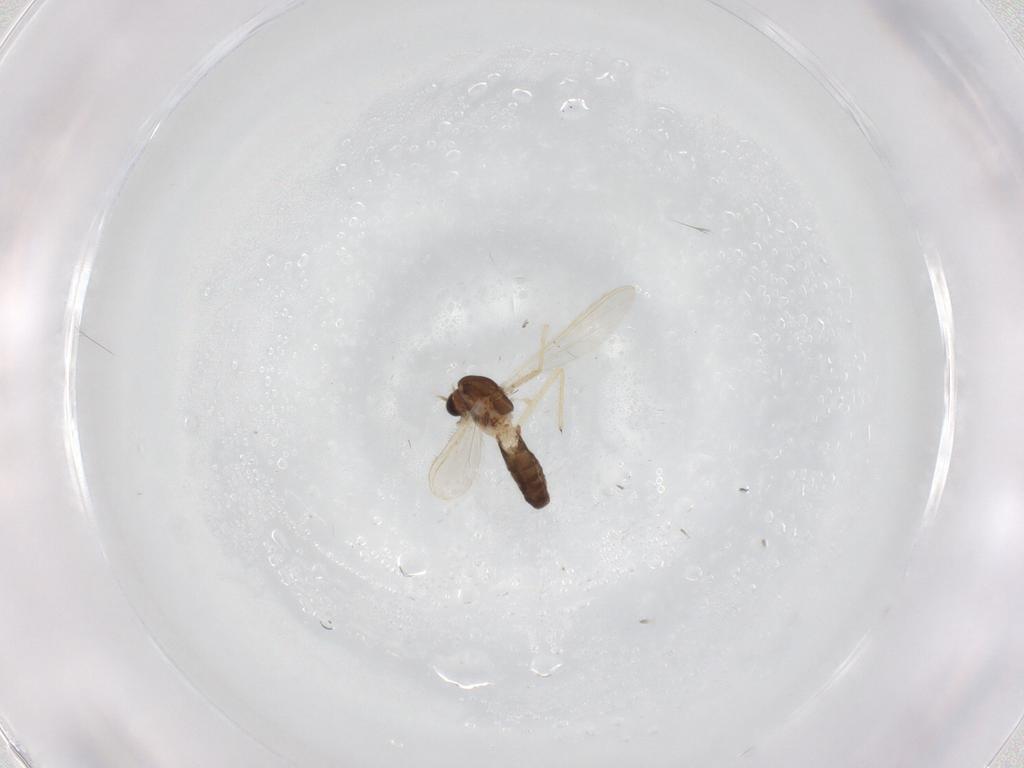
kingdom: Animalia
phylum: Arthropoda
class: Insecta
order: Diptera
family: Chironomidae
